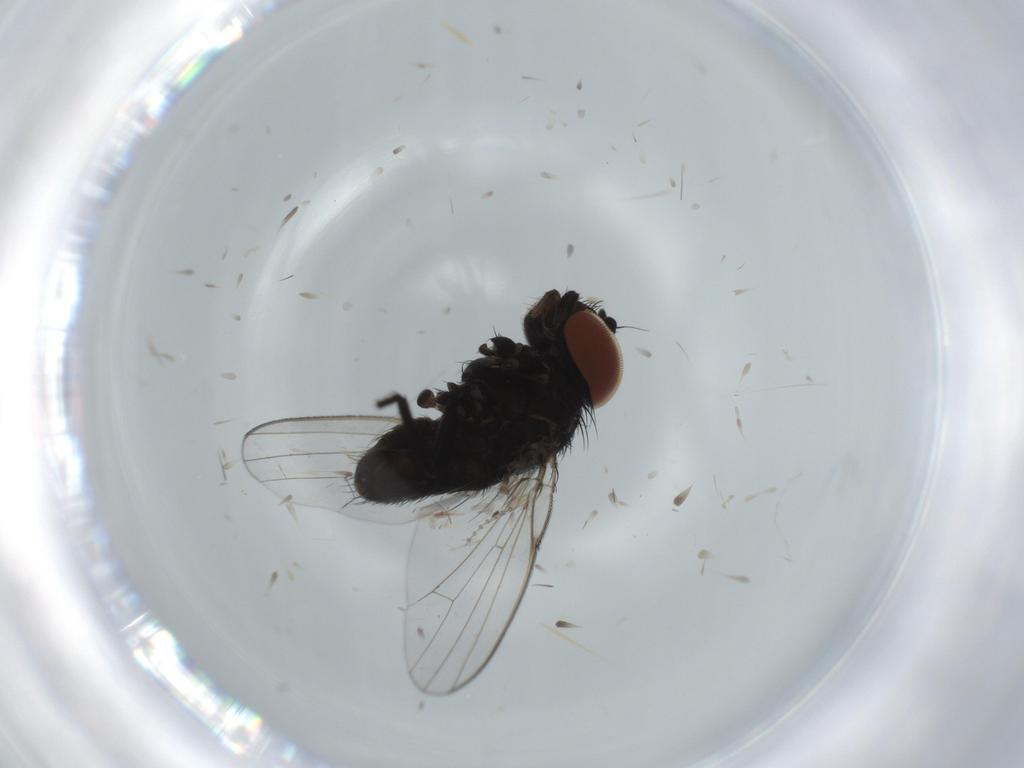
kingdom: Animalia
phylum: Arthropoda
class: Insecta
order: Diptera
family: Milichiidae
